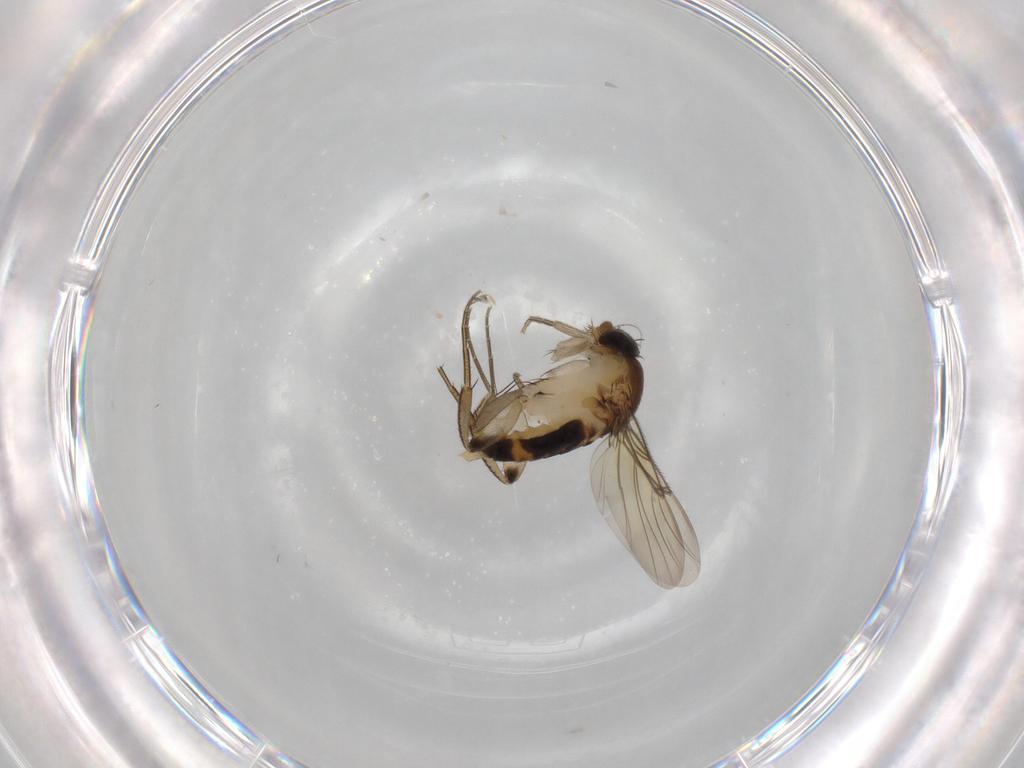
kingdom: Animalia
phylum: Arthropoda
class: Insecta
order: Diptera
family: Phoridae
